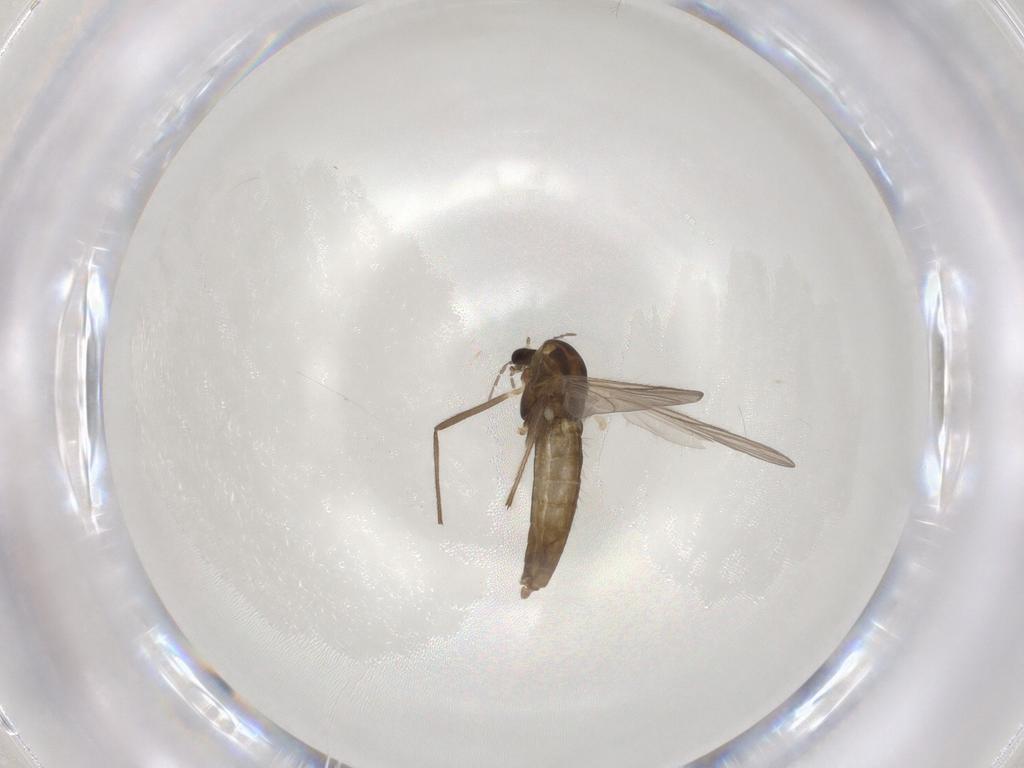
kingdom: Animalia
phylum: Arthropoda
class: Insecta
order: Diptera
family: Chironomidae
